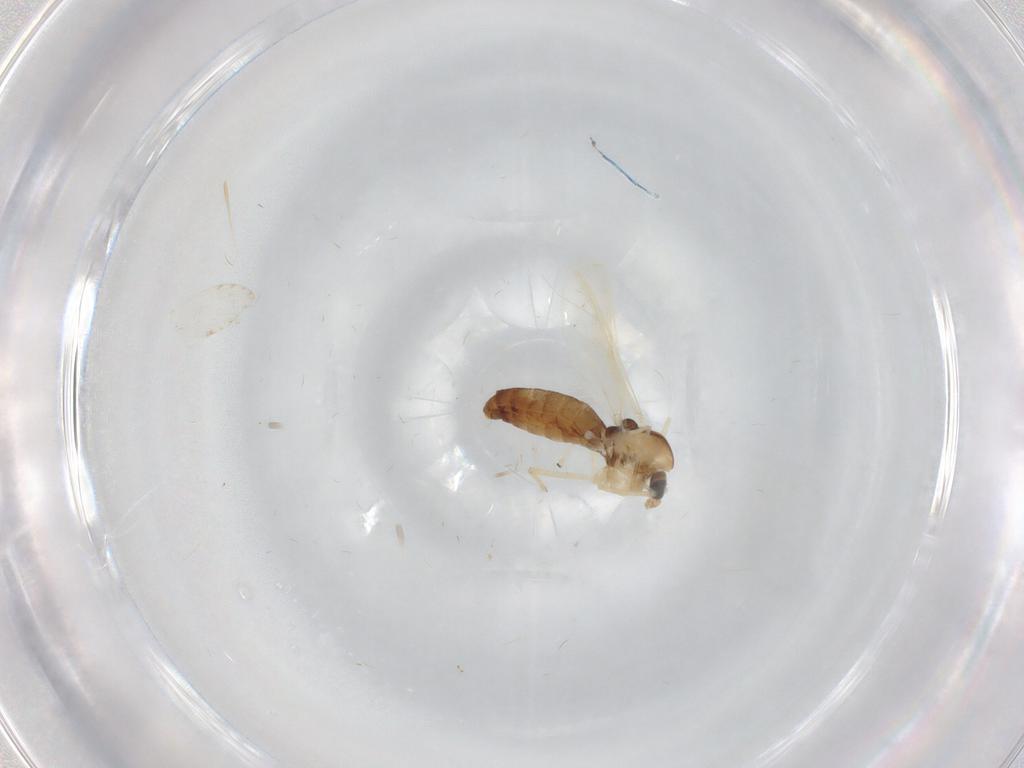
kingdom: Animalia
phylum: Arthropoda
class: Insecta
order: Diptera
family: Chironomidae
